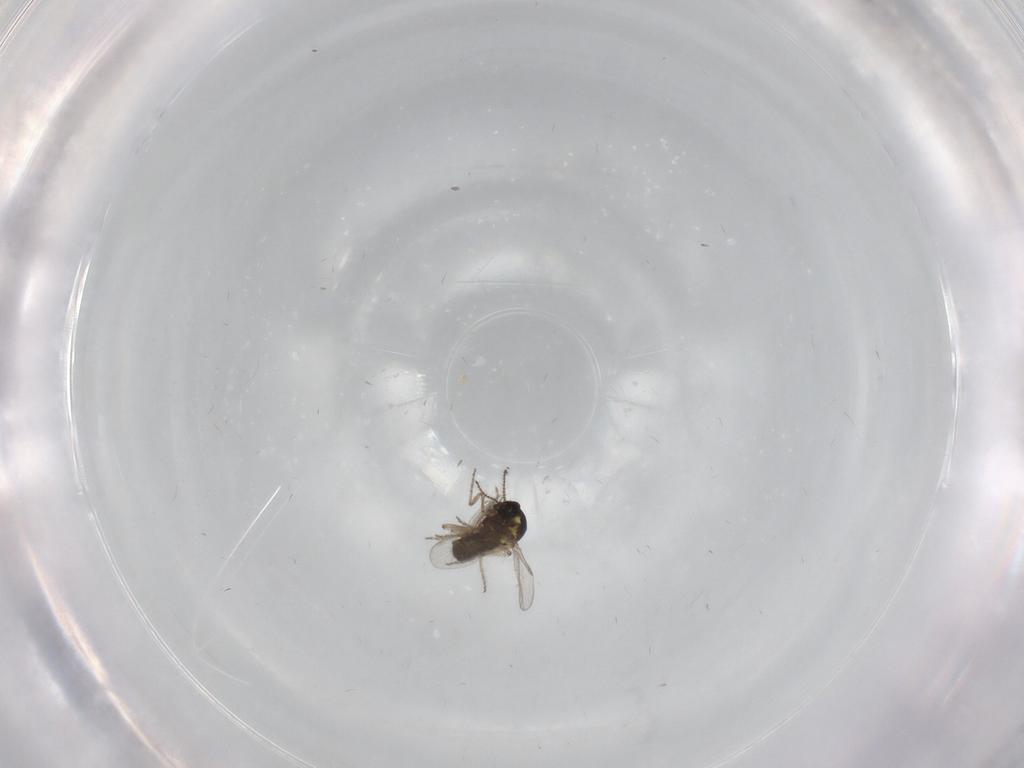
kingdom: Animalia
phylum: Arthropoda
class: Insecta
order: Diptera
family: Ceratopogonidae
